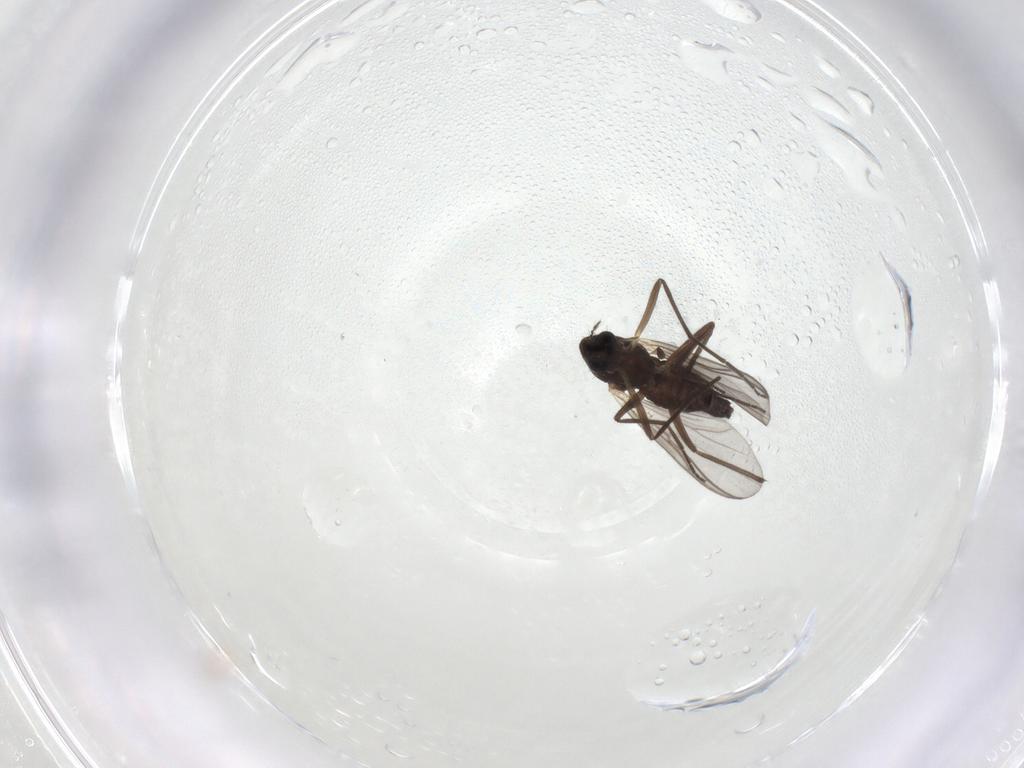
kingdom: Animalia
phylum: Arthropoda
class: Insecta
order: Diptera
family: Chironomidae
